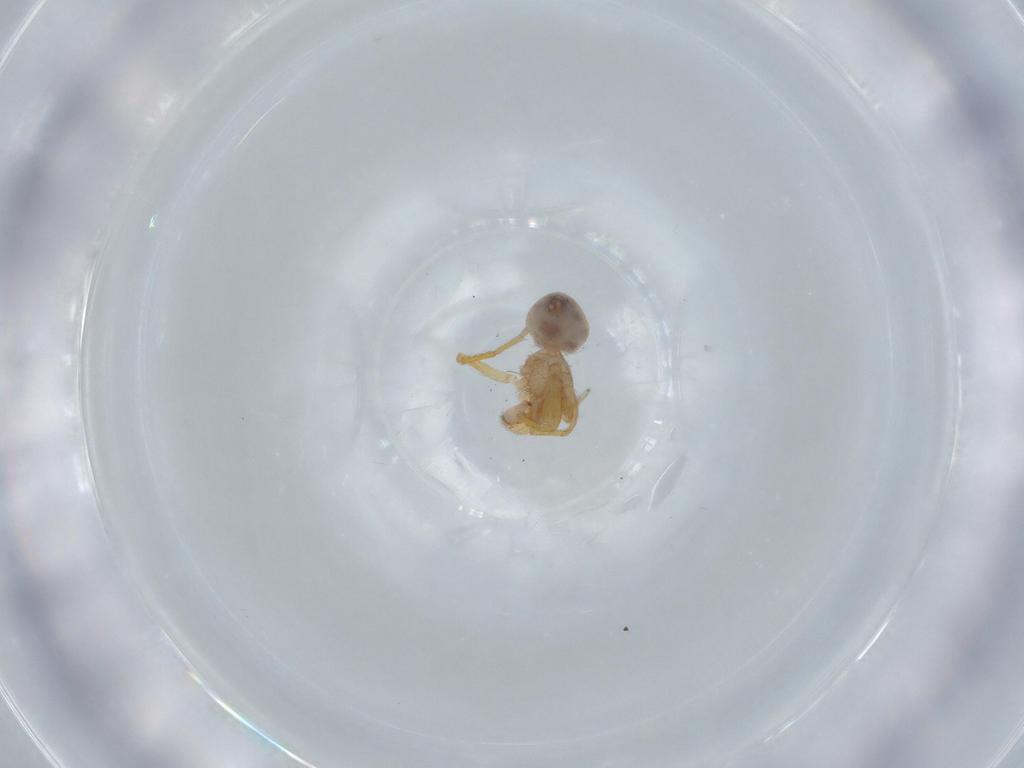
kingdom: Animalia
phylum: Arthropoda
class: Arachnida
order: Araneae
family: Oonopidae
